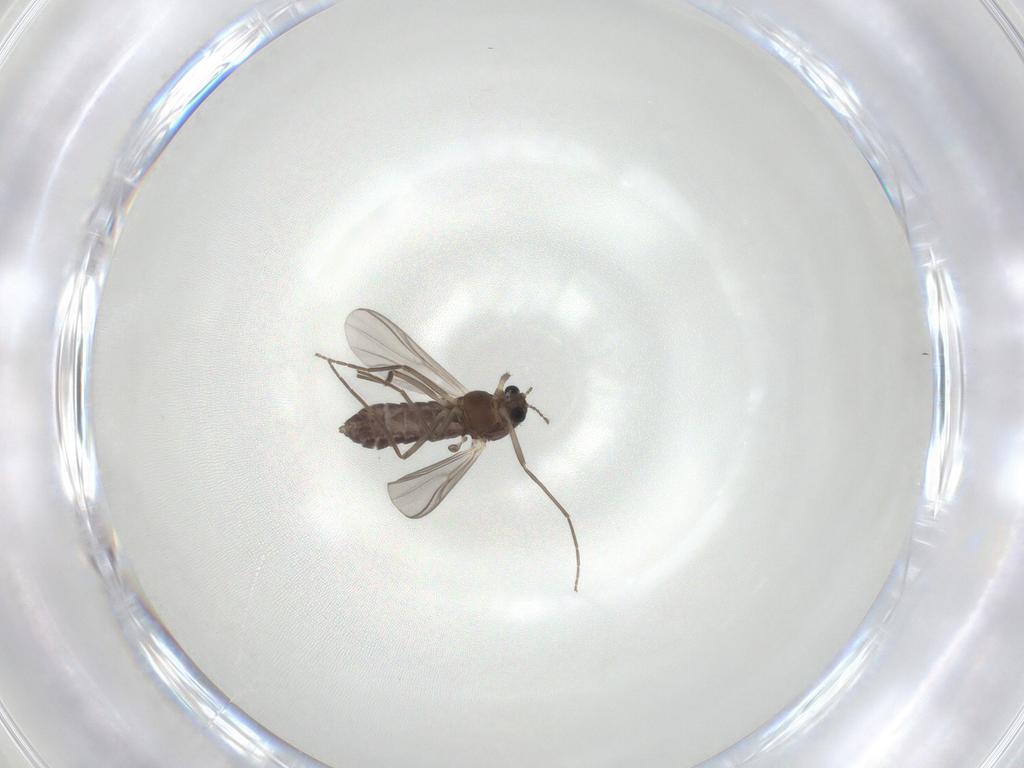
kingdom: Animalia
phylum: Arthropoda
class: Insecta
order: Diptera
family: Chironomidae
